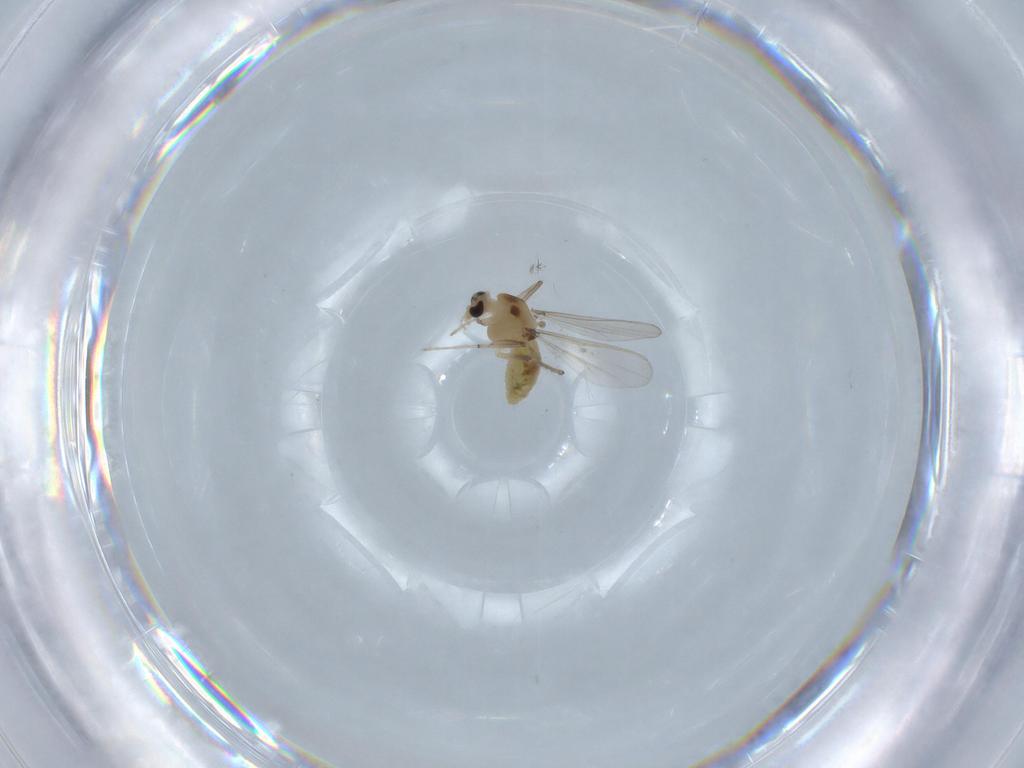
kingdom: Animalia
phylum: Arthropoda
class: Insecta
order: Diptera
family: Chironomidae
